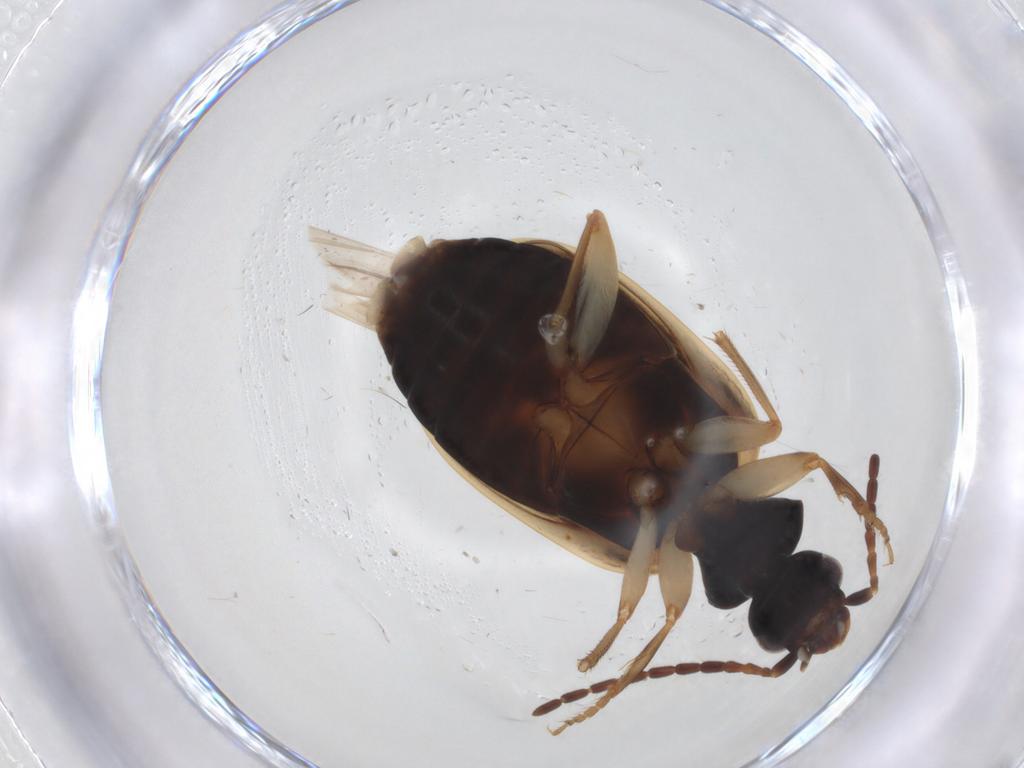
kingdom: Animalia
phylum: Arthropoda
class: Insecta
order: Coleoptera
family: Carabidae
